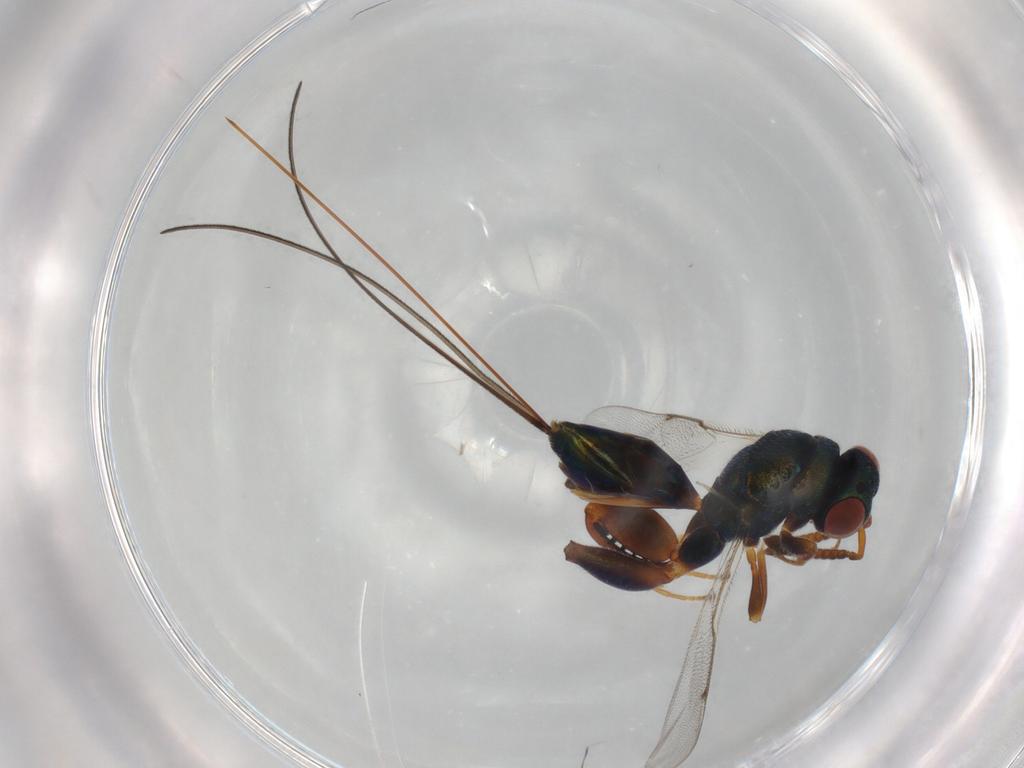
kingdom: Animalia
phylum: Arthropoda
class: Insecta
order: Hymenoptera
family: Torymidae
